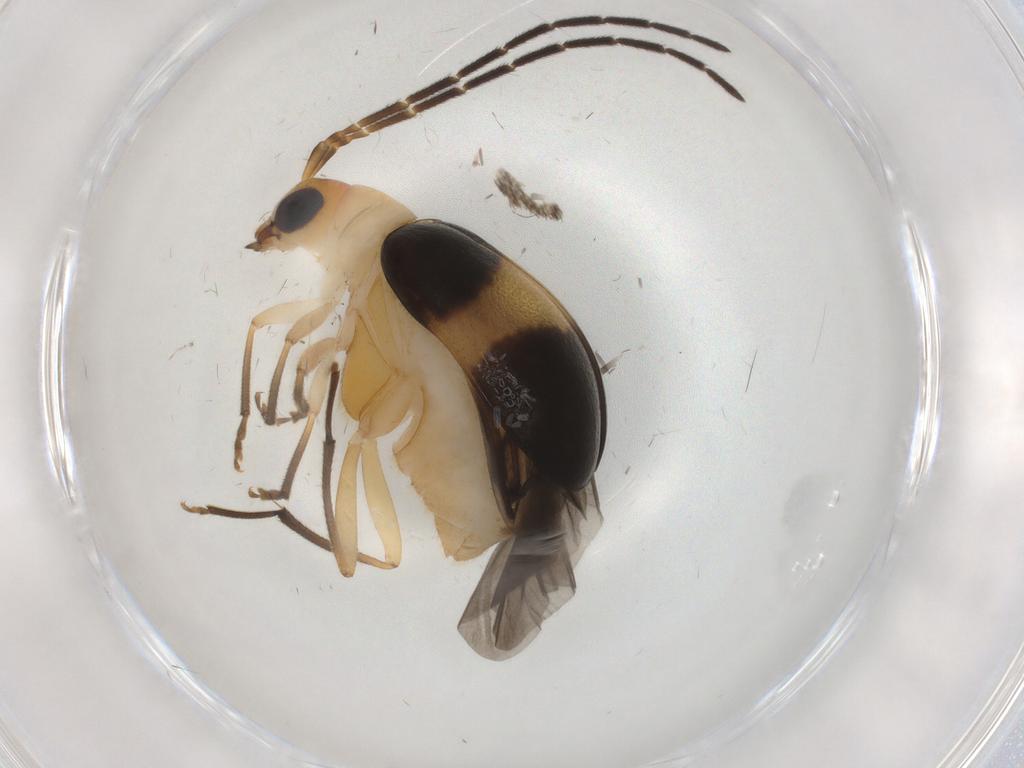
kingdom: Animalia
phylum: Arthropoda
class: Insecta
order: Coleoptera
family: Chrysomelidae
